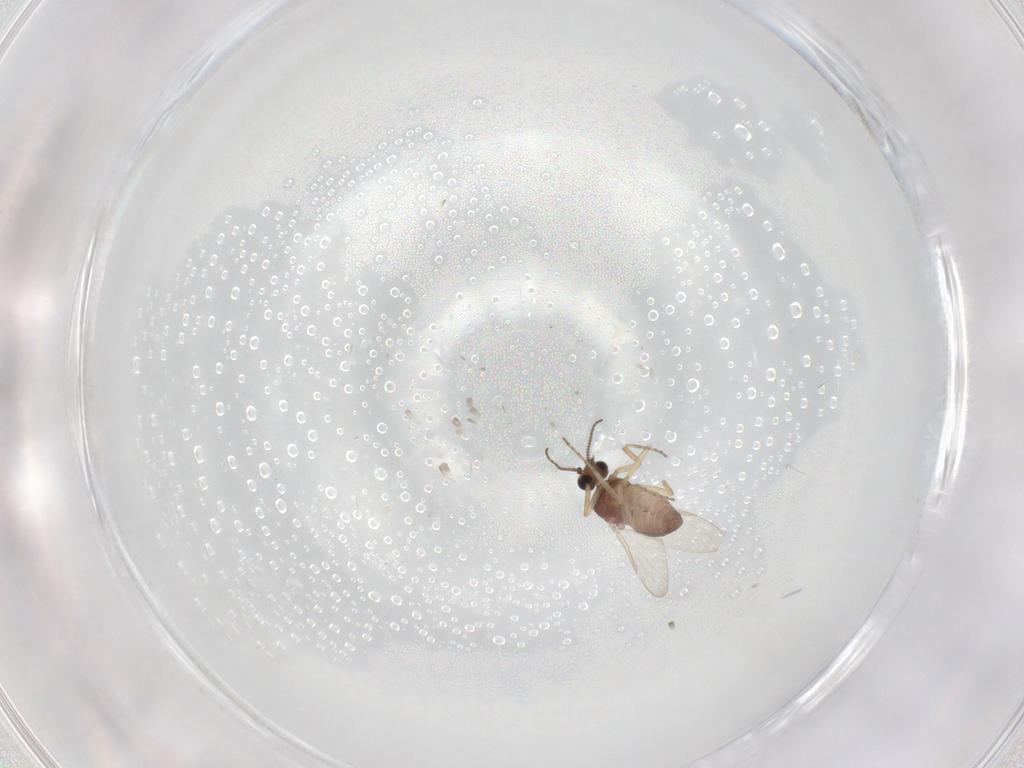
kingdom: Animalia
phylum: Arthropoda
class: Insecta
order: Diptera
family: Ceratopogonidae
